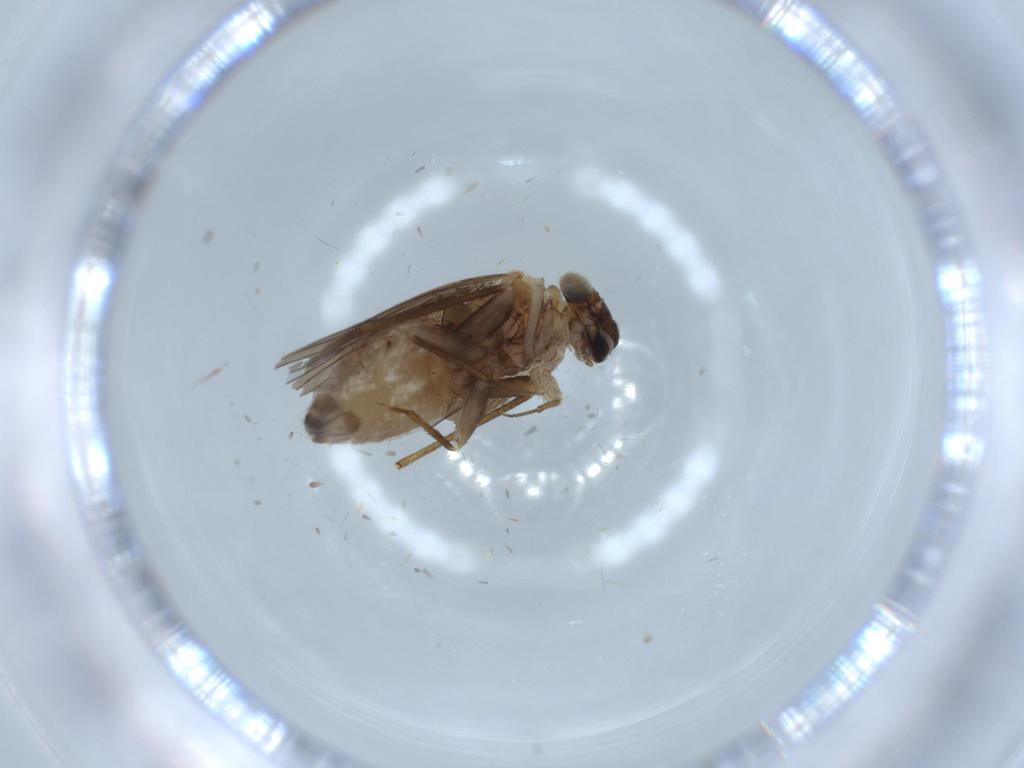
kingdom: Animalia
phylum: Arthropoda
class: Insecta
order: Psocodea
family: Lepidopsocidae
